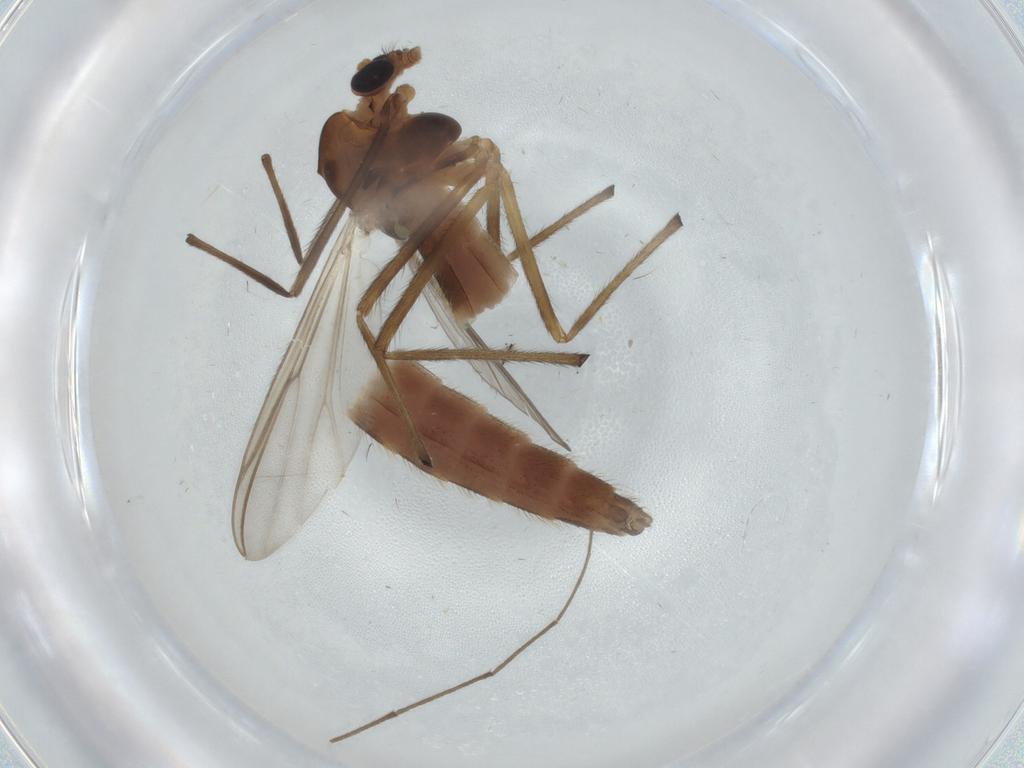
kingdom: Animalia
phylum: Arthropoda
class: Insecta
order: Diptera
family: Chironomidae
